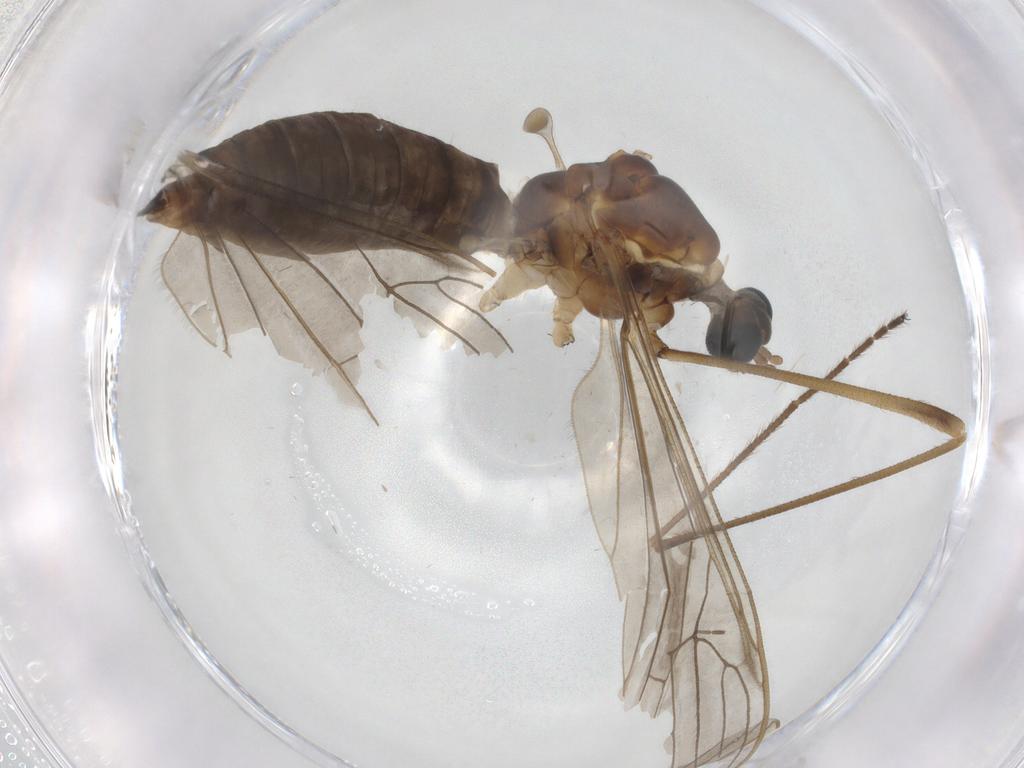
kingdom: Animalia
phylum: Arthropoda
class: Insecta
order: Diptera
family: Limoniidae
